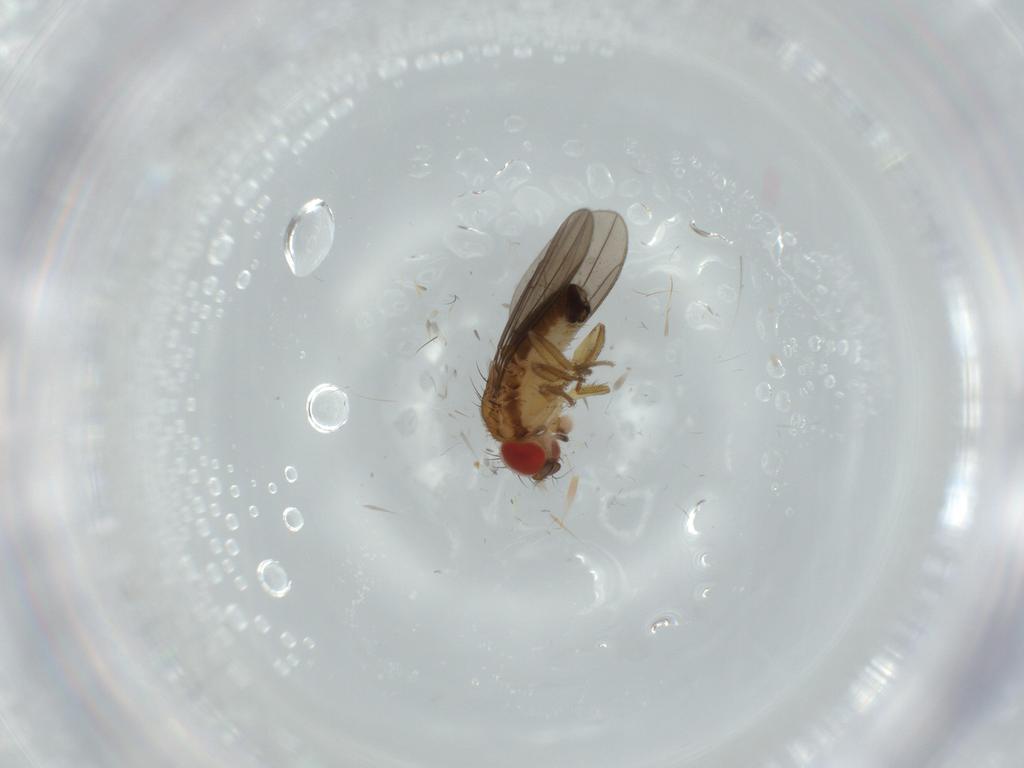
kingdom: Animalia
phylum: Arthropoda
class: Insecta
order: Diptera
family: Drosophilidae
